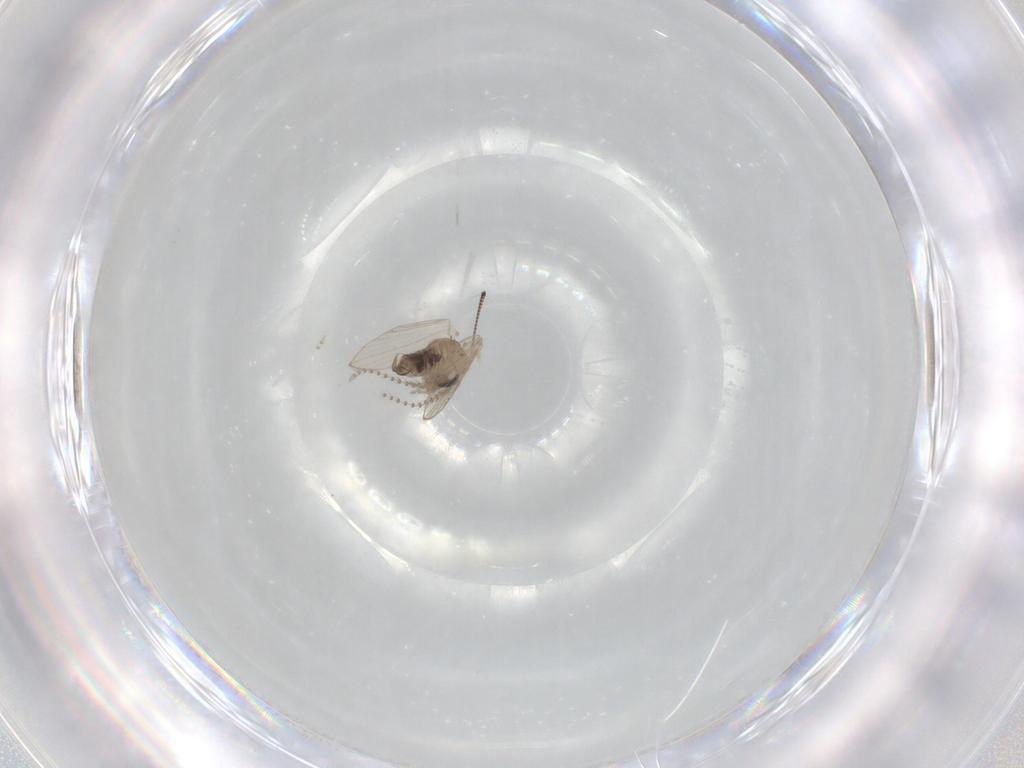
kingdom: Animalia
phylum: Arthropoda
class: Insecta
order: Diptera
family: Psychodidae
